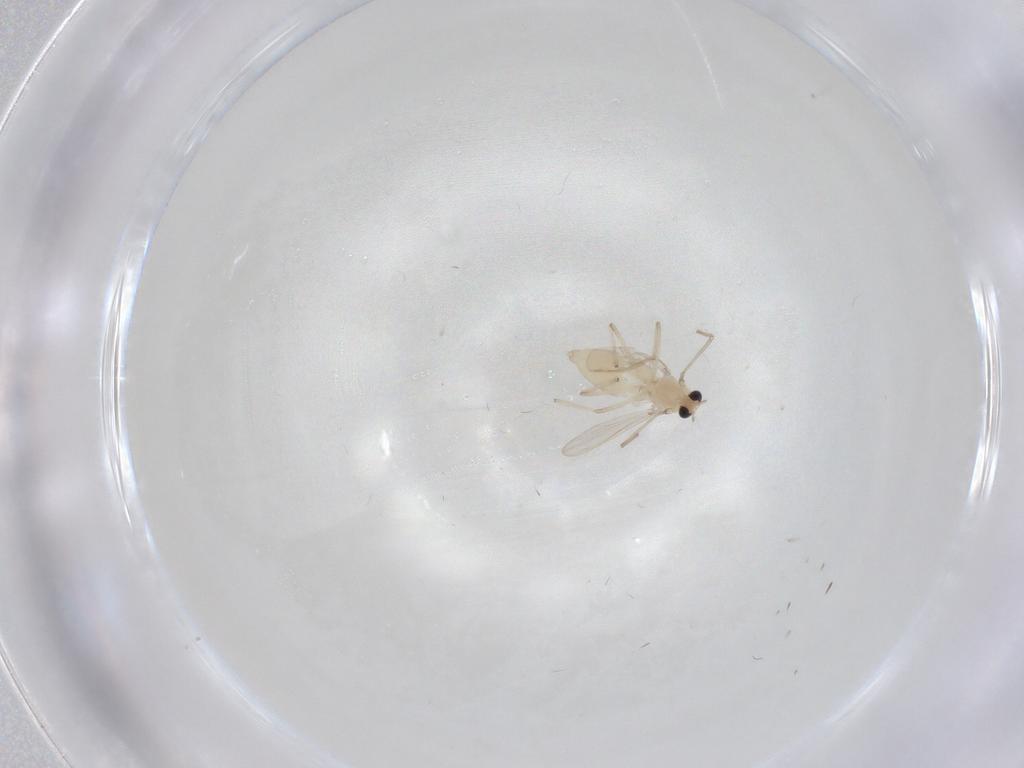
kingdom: Animalia
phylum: Arthropoda
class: Insecta
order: Diptera
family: Chironomidae
